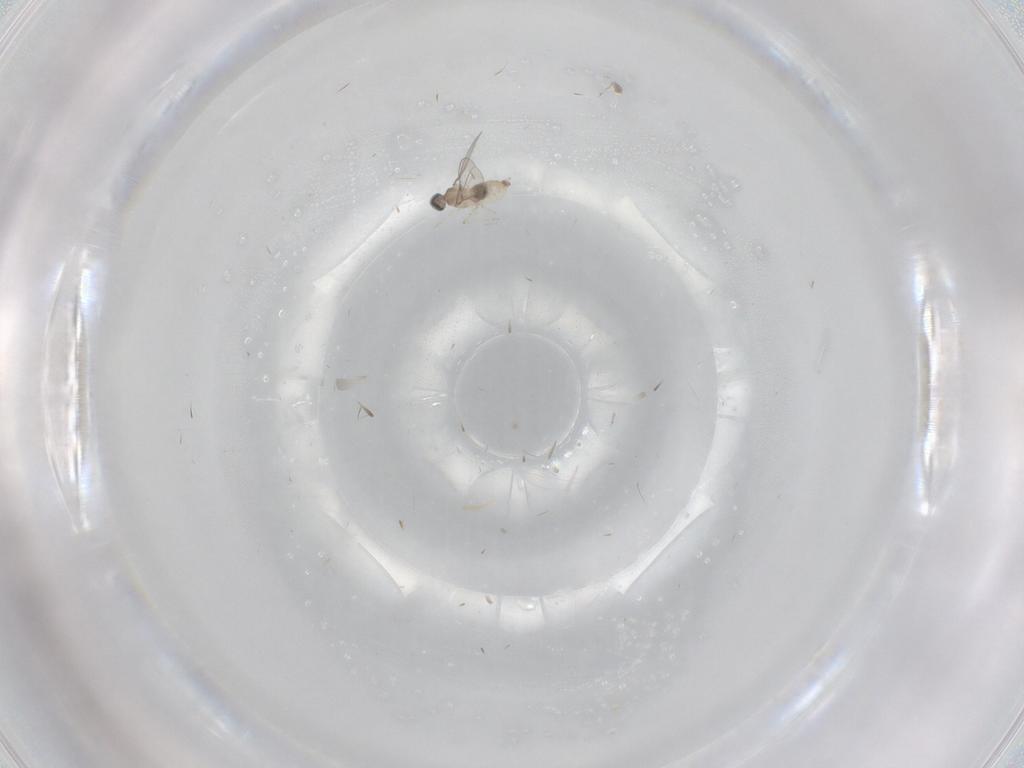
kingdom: Animalia
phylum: Arthropoda
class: Insecta
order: Diptera
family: Cecidomyiidae
